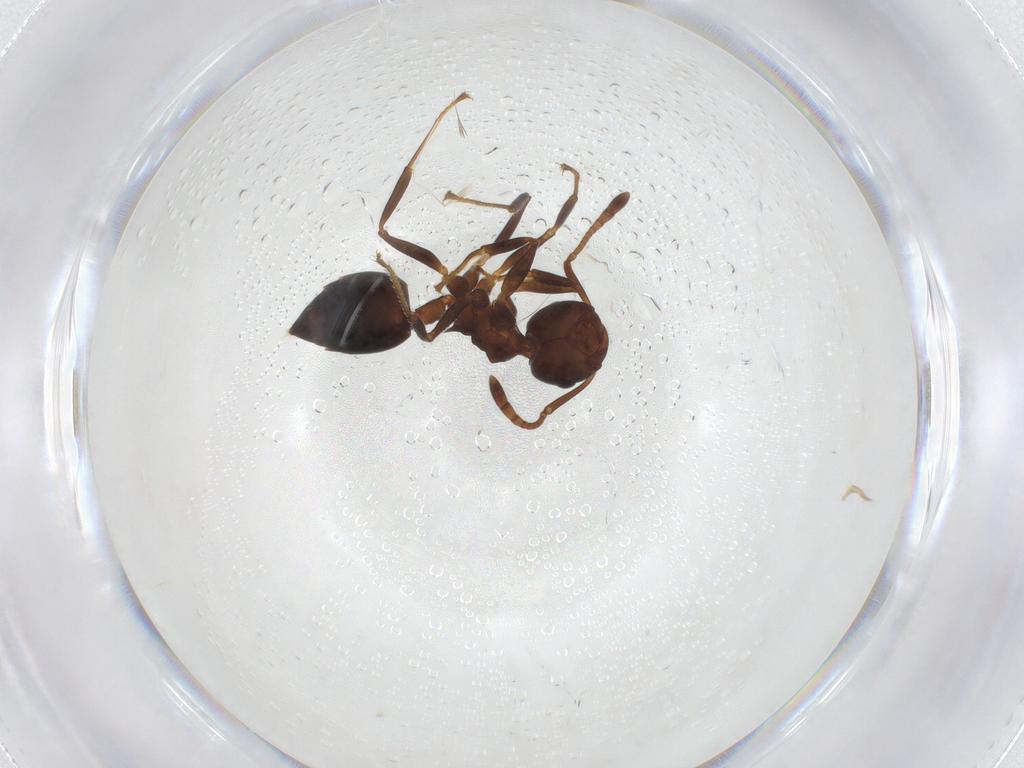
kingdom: Animalia
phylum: Arthropoda
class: Insecta
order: Hymenoptera
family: Formicidae
